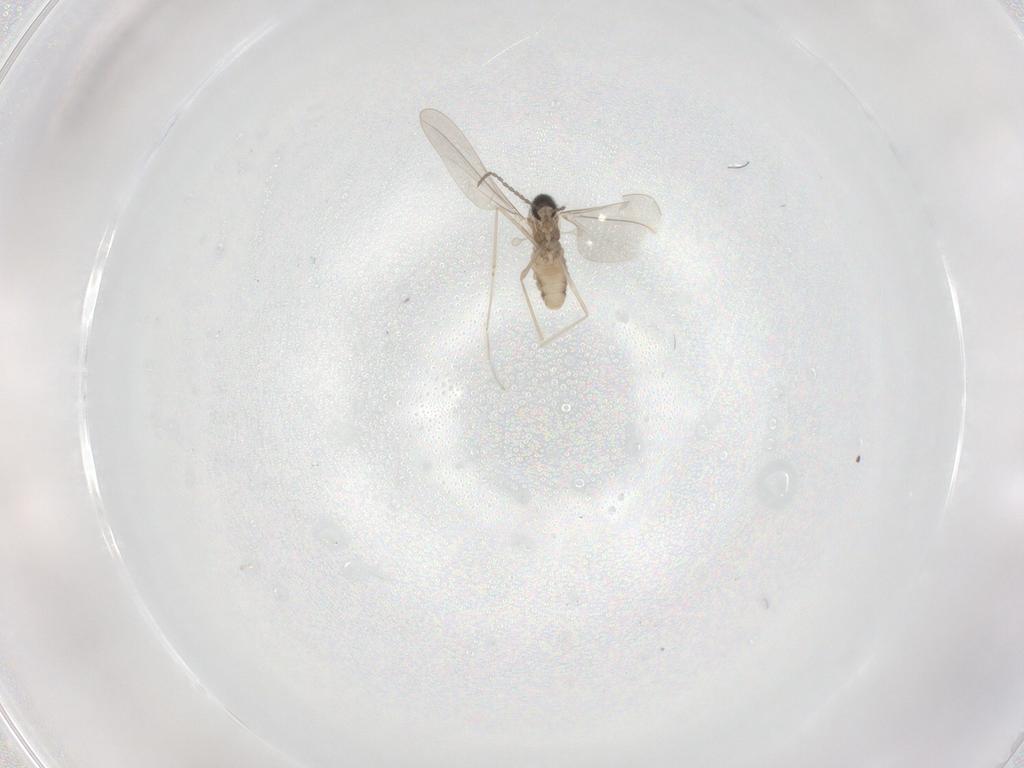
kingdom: Animalia
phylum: Arthropoda
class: Insecta
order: Diptera
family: Cecidomyiidae
